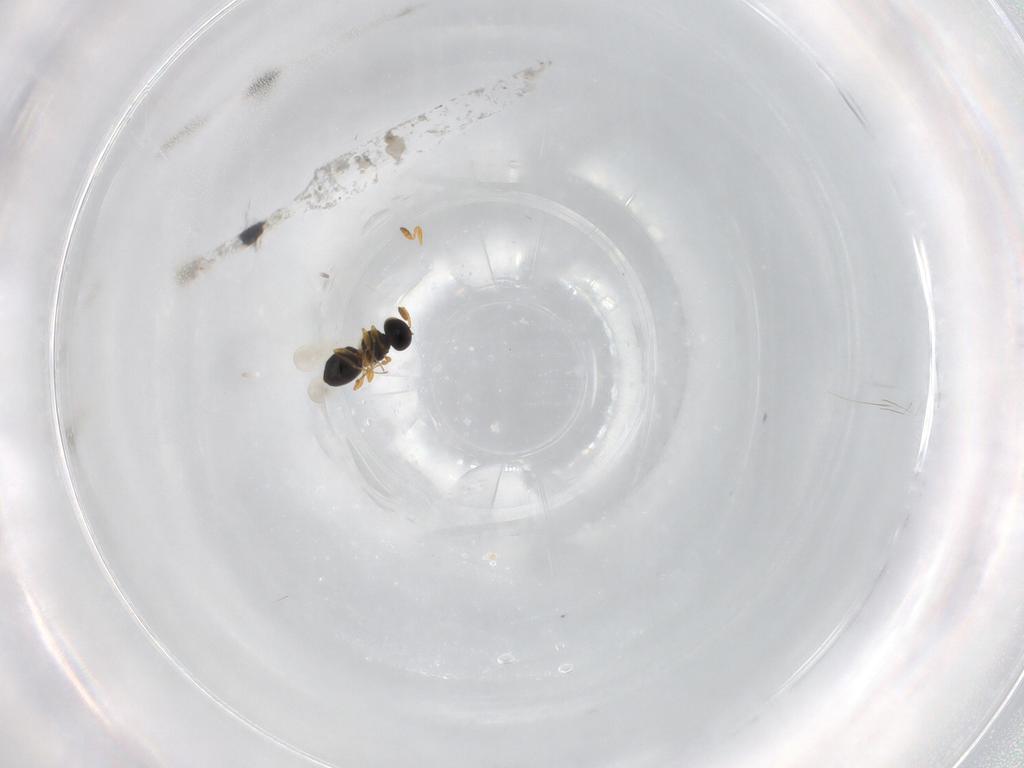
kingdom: Animalia
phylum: Arthropoda
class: Insecta
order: Hymenoptera
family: Platygastridae
